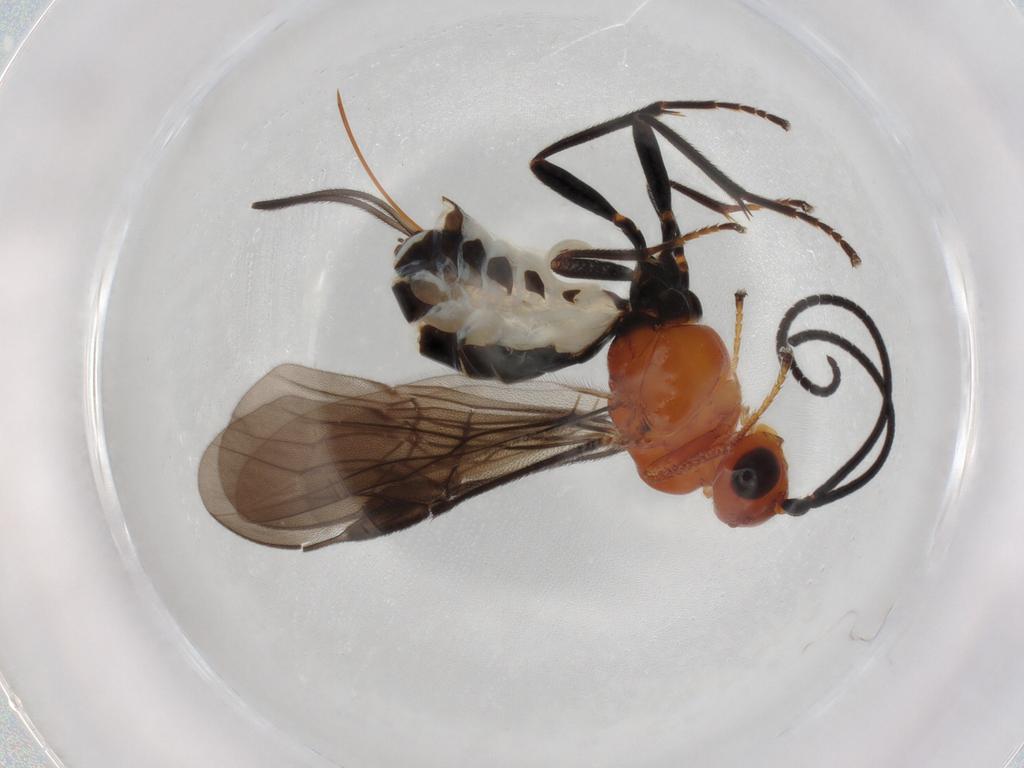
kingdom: Animalia
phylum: Arthropoda
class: Insecta
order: Hymenoptera
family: Braconidae
